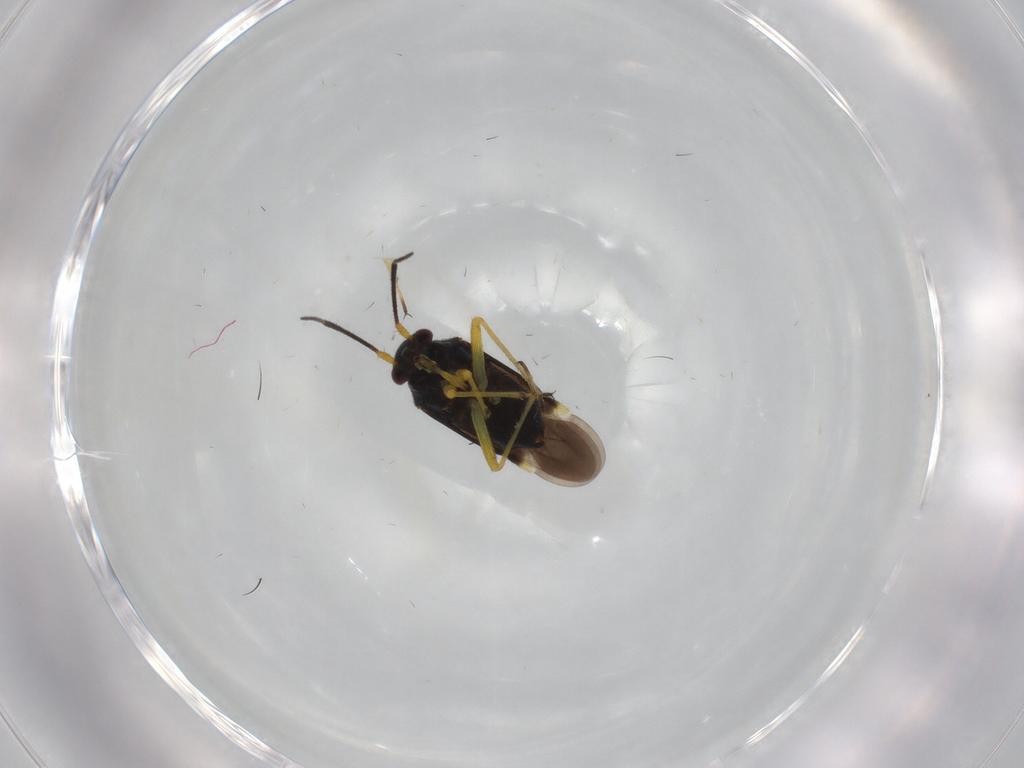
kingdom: Animalia
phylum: Arthropoda
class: Insecta
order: Hemiptera
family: Miridae
